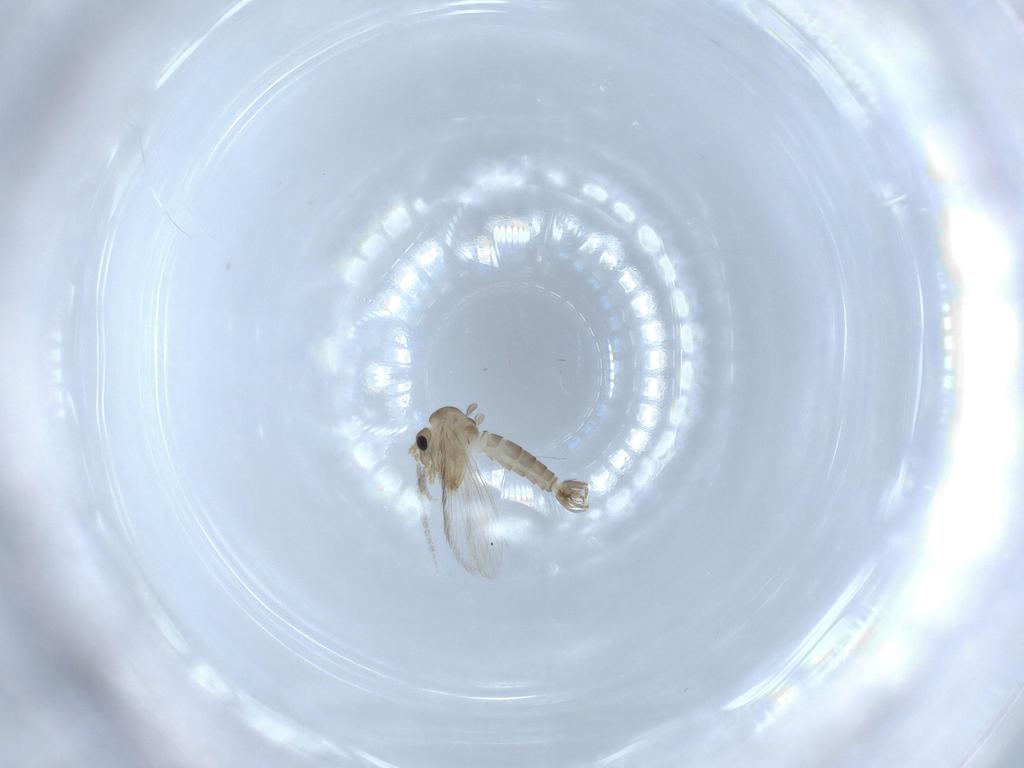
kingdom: Animalia
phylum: Arthropoda
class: Insecta
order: Diptera
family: Psychodidae
